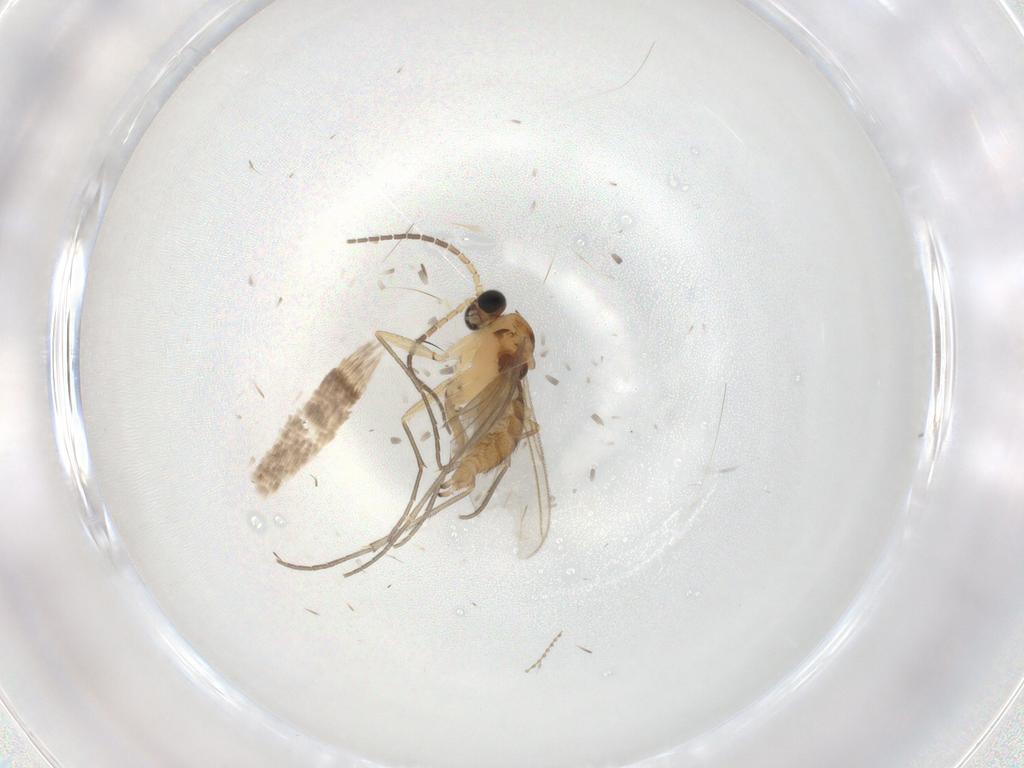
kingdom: Animalia
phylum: Arthropoda
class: Insecta
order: Diptera
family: Sciaridae
